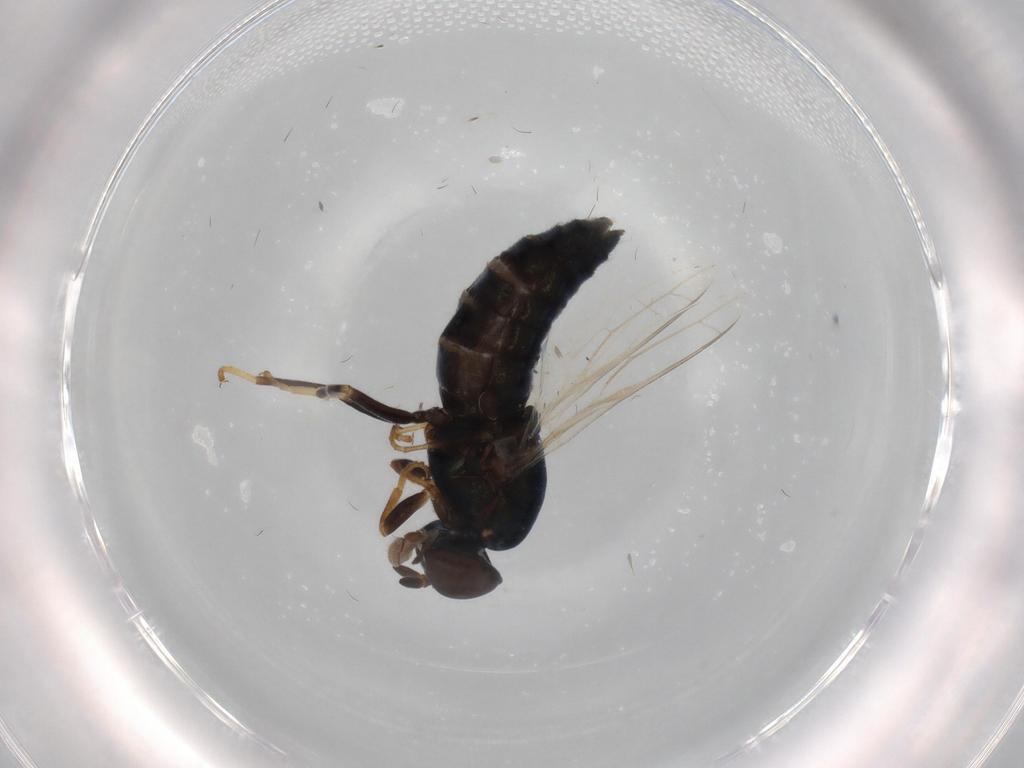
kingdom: Animalia
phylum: Arthropoda
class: Insecta
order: Diptera
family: Scenopinidae
